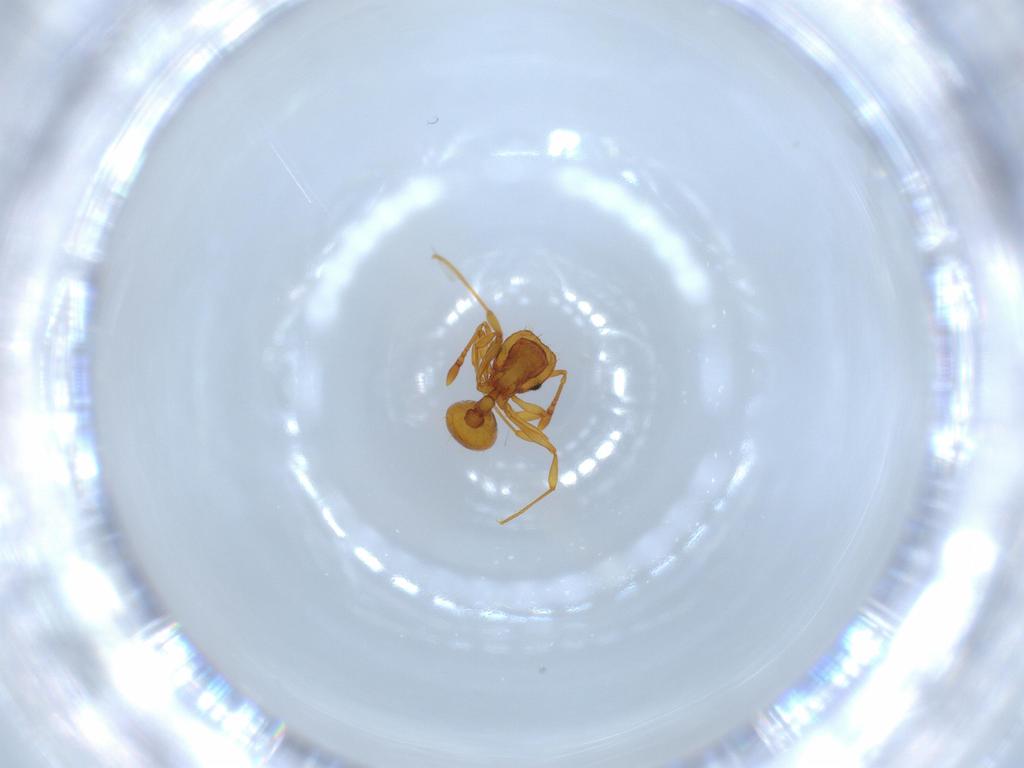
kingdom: Animalia
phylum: Arthropoda
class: Insecta
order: Hymenoptera
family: Formicidae
